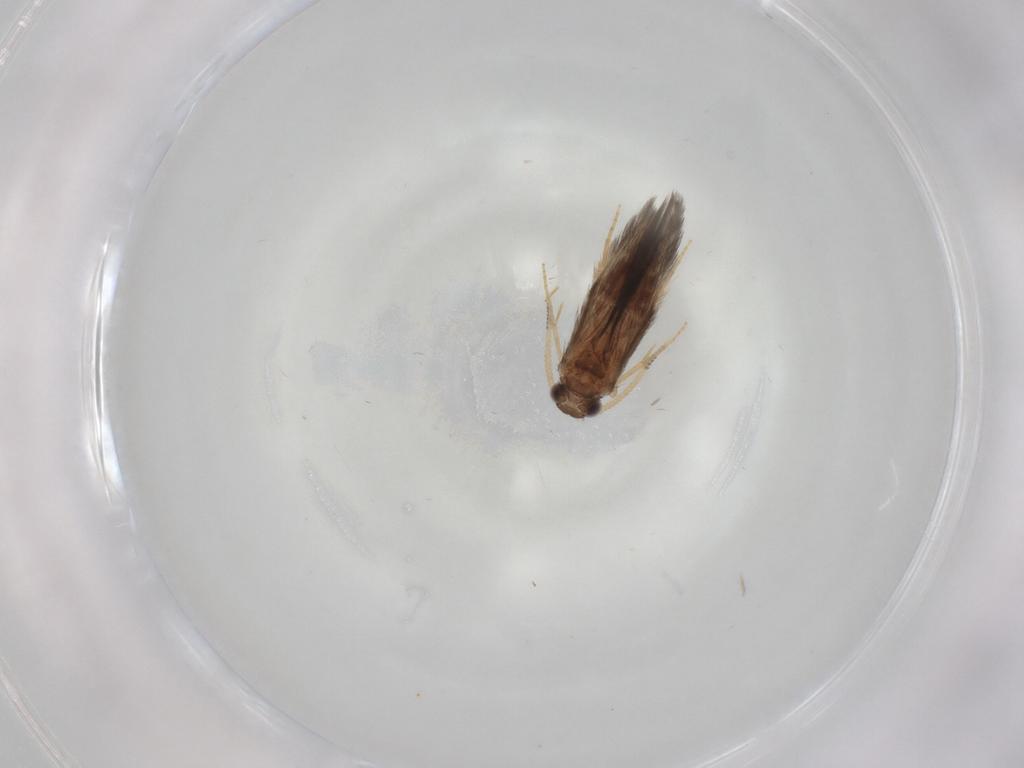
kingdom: Animalia
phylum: Arthropoda
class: Insecta
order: Trichoptera
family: Hydroptilidae
